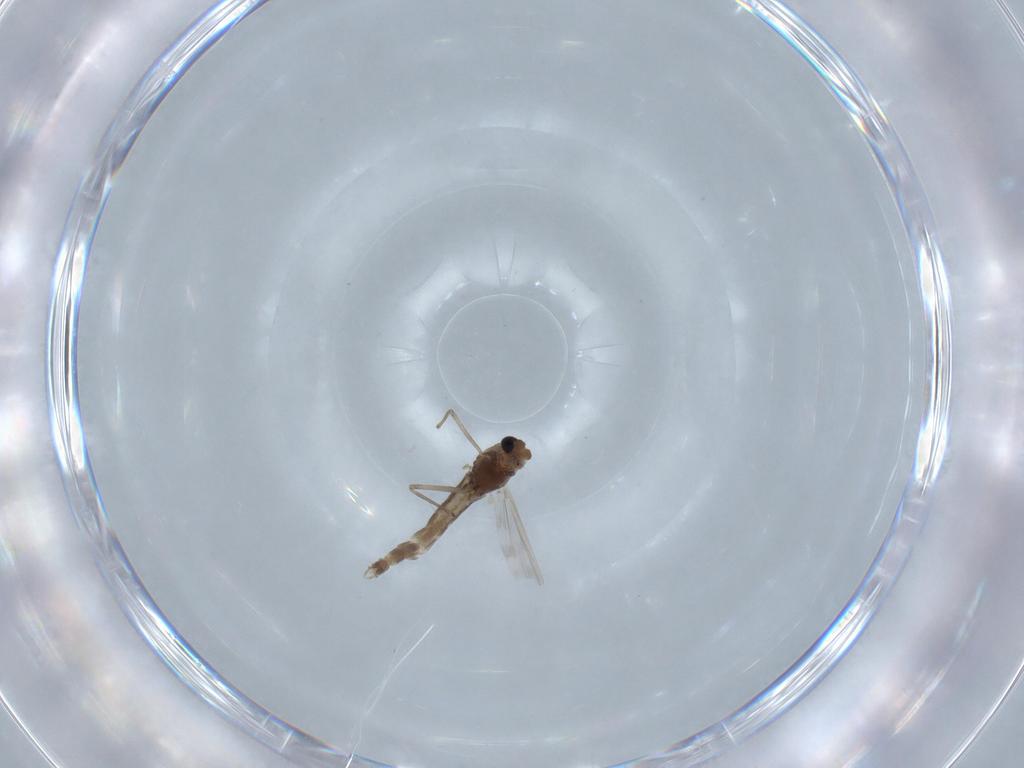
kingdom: Animalia
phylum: Arthropoda
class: Insecta
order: Diptera
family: Chironomidae
